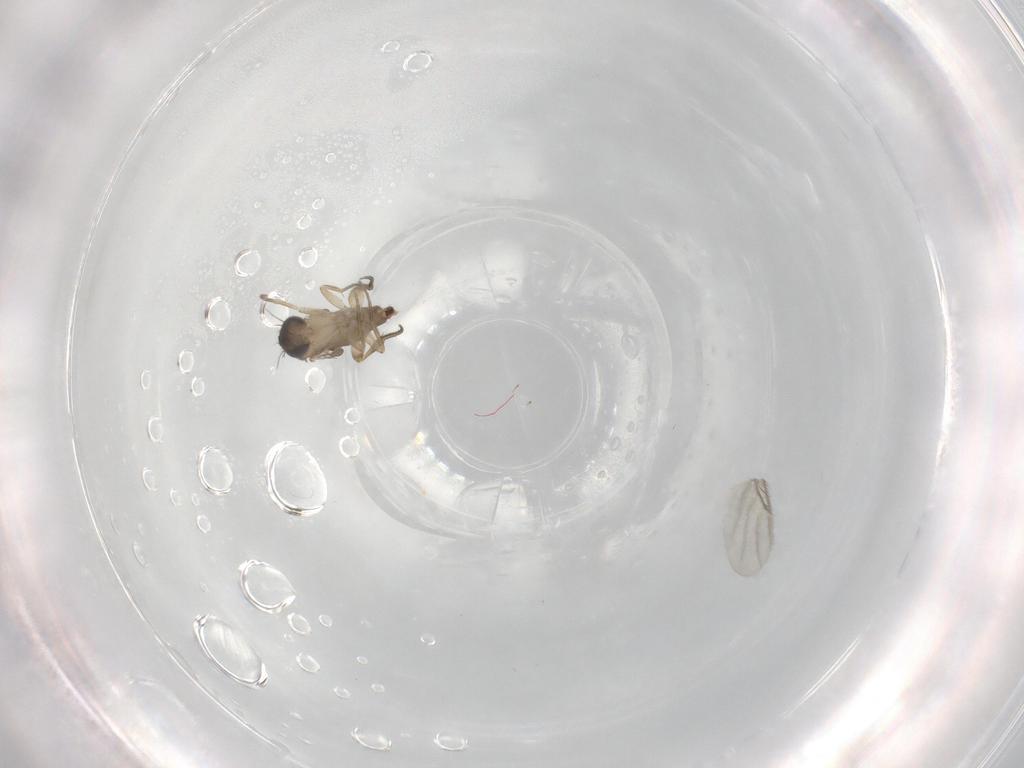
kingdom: Animalia
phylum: Arthropoda
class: Insecta
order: Diptera
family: Phoridae
